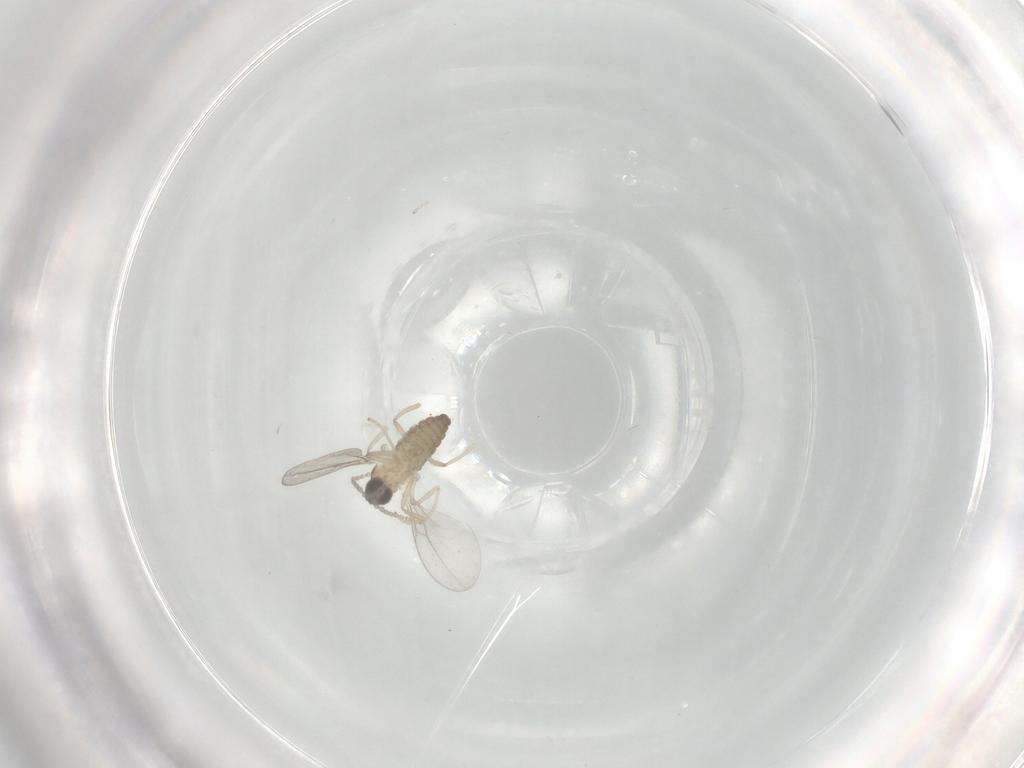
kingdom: Animalia
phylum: Arthropoda
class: Insecta
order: Diptera
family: Cecidomyiidae
